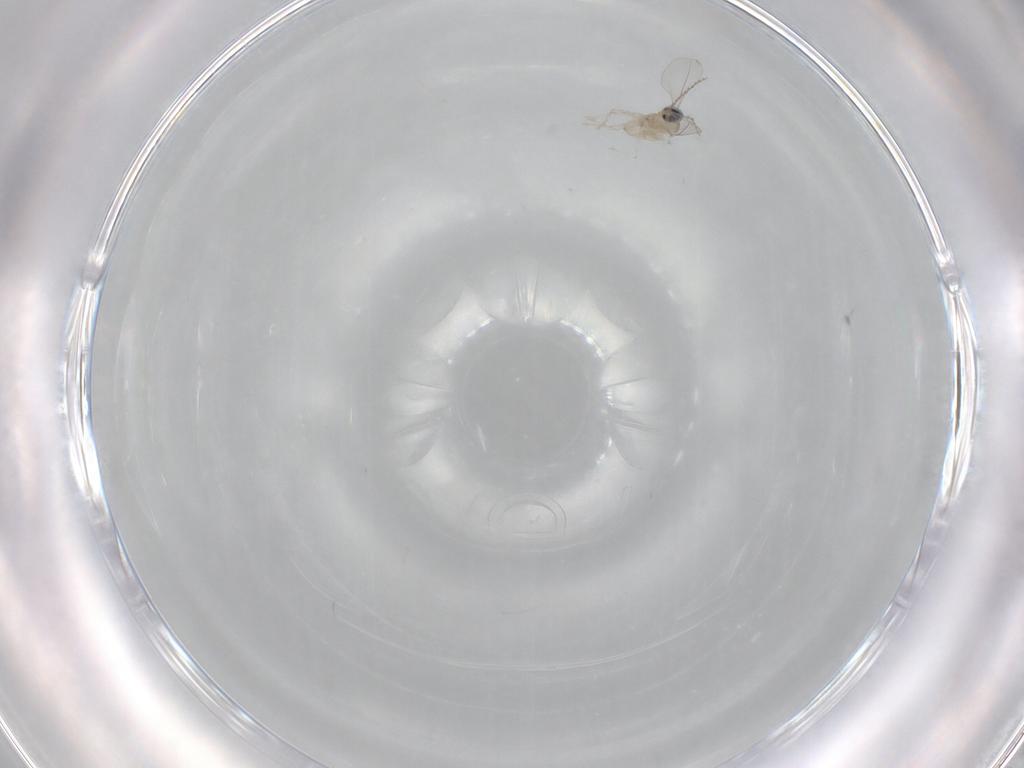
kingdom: Animalia
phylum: Arthropoda
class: Insecta
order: Diptera
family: Cecidomyiidae
